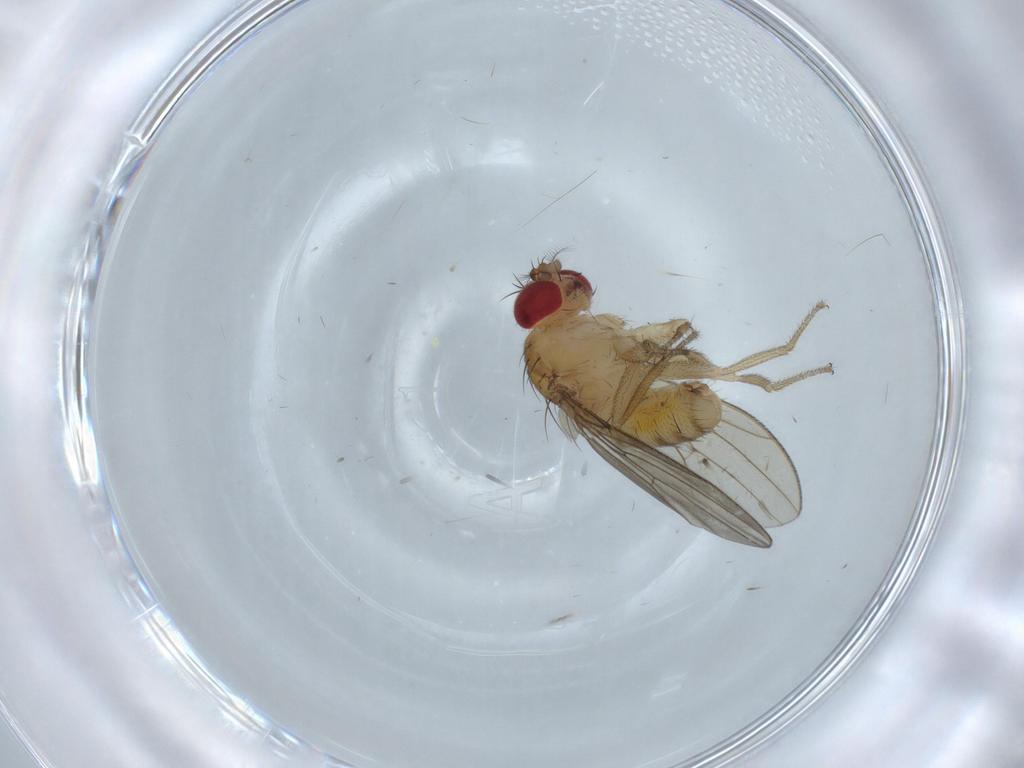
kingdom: Animalia
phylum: Arthropoda
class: Insecta
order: Diptera
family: Drosophilidae
